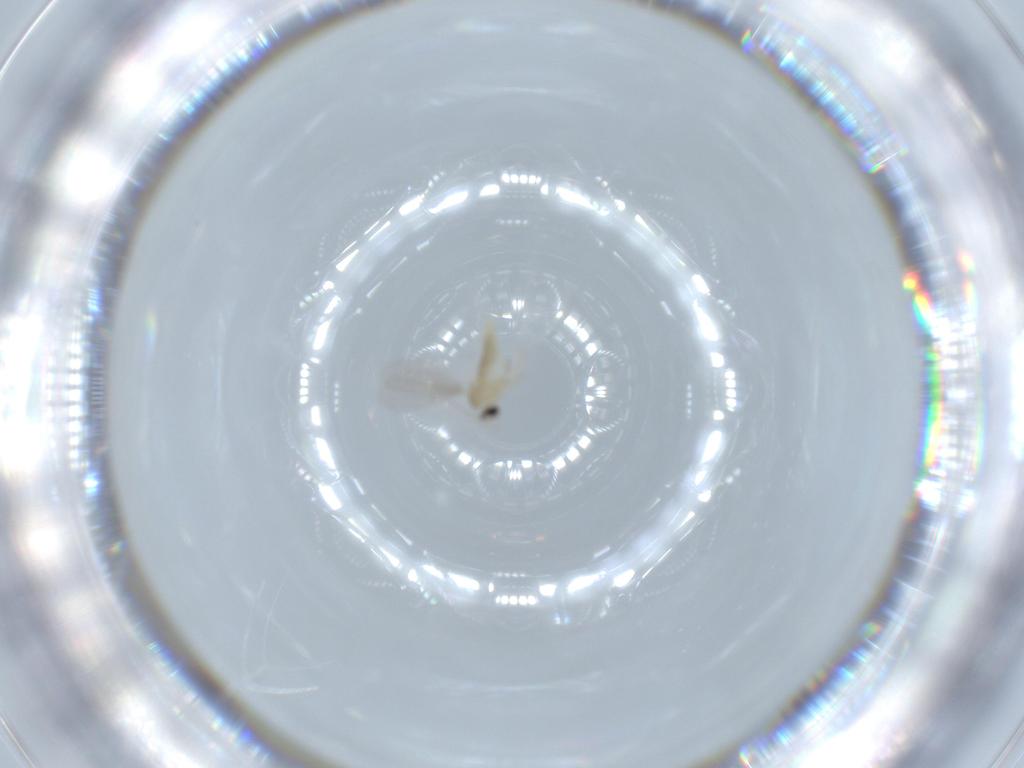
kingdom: Animalia
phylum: Arthropoda
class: Insecta
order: Diptera
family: Cecidomyiidae
